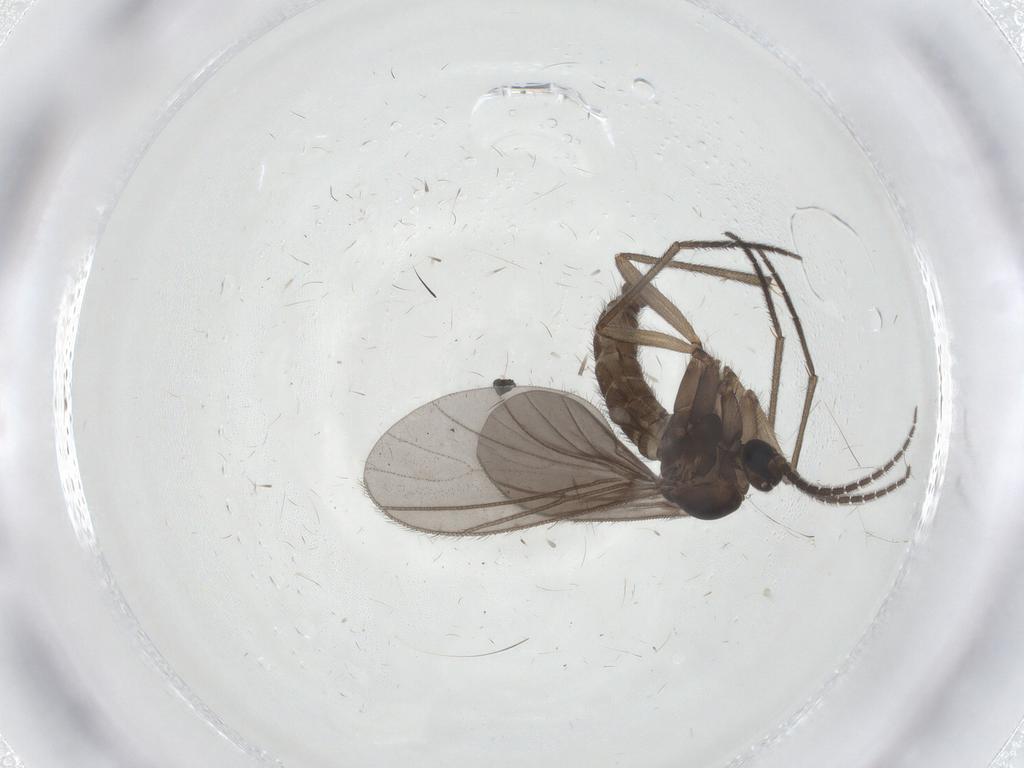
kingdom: Animalia
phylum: Arthropoda
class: Insecta
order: Diptera
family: Sciaridae
